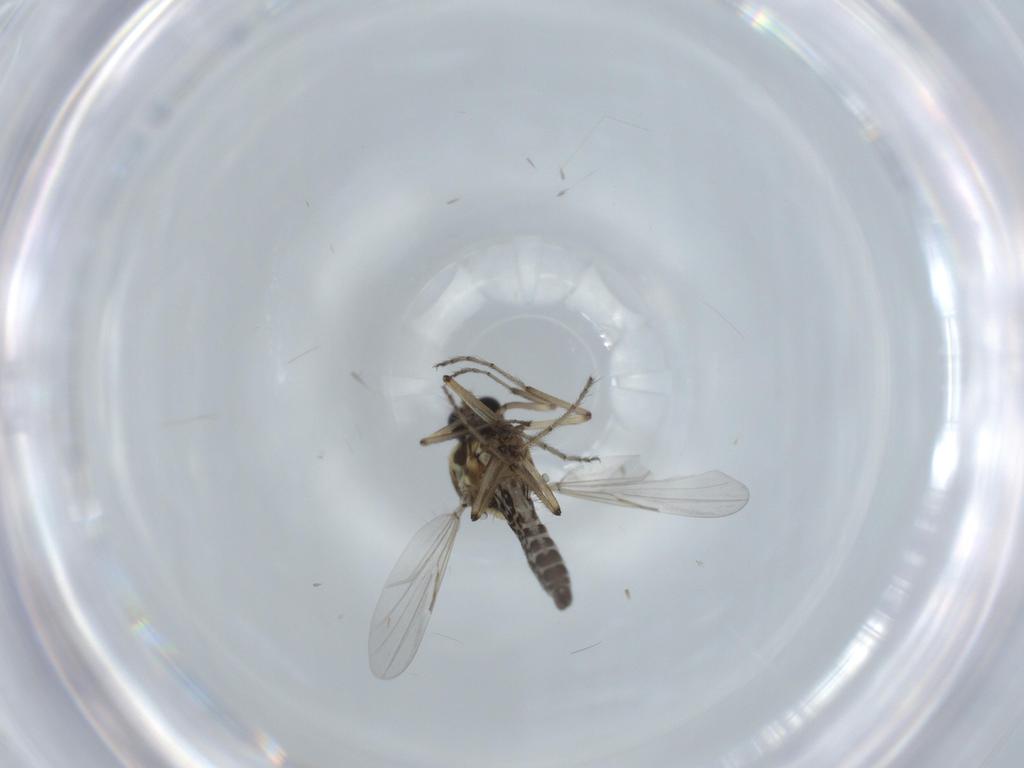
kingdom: Animalia
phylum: Arthropoda
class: Insecta
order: Diptera
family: Ceratopogonidae
